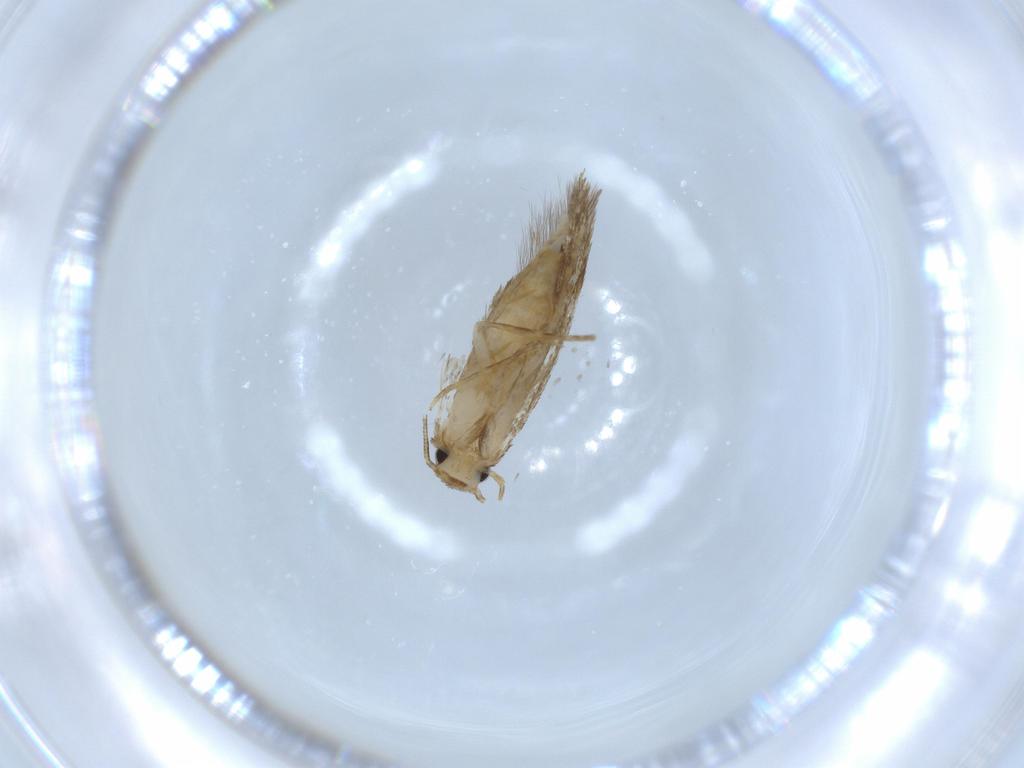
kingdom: Animalia
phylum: Arthropoda
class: Insecta
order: Lepidoptera
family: Tineidae
